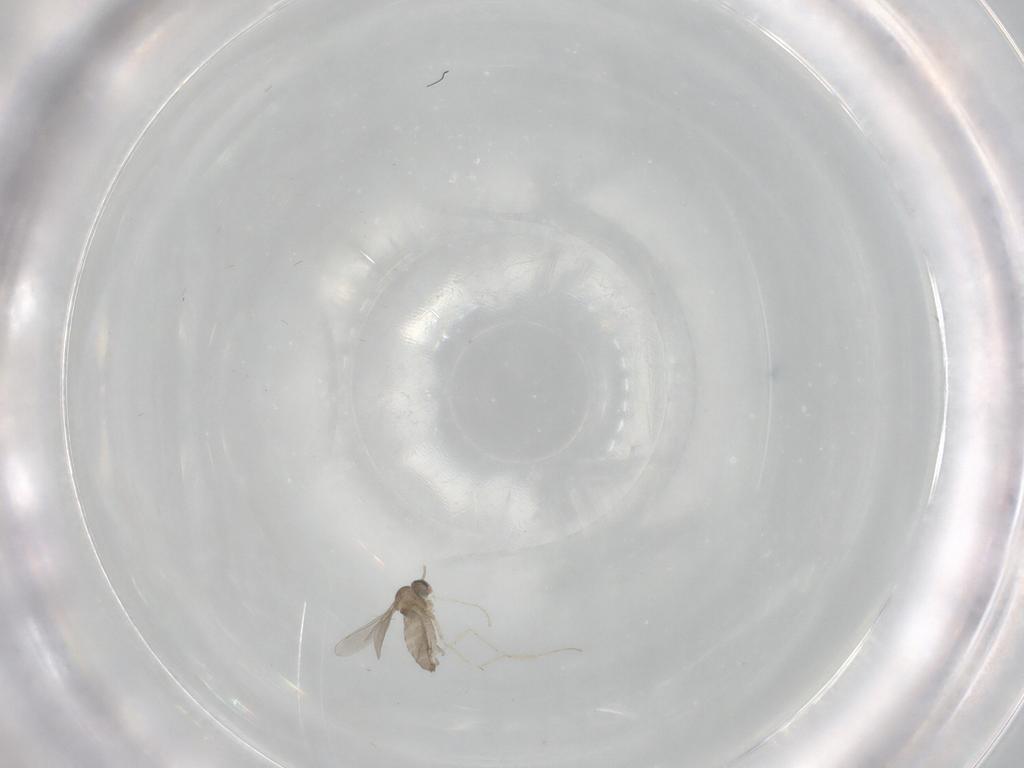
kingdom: Animalia
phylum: Arthropoda
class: Insecta
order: Diptera
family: Ceratopogonidae
